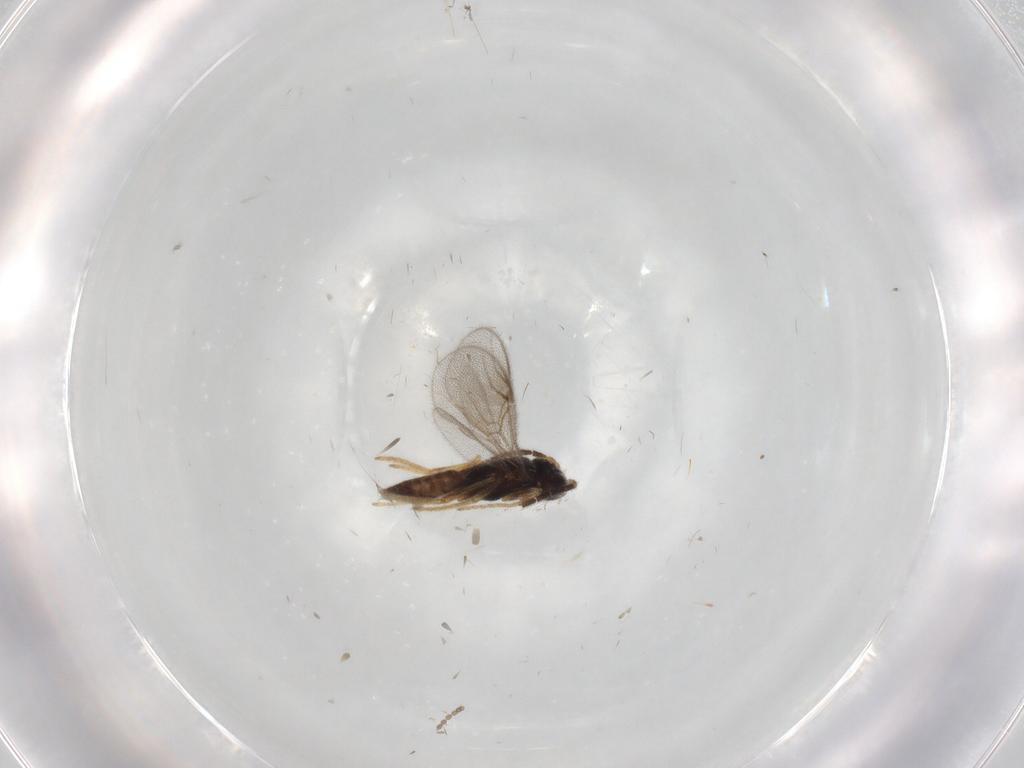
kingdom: Animalia
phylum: Arthropoda
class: Insecta
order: Hymenoptera
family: Dryinidae
